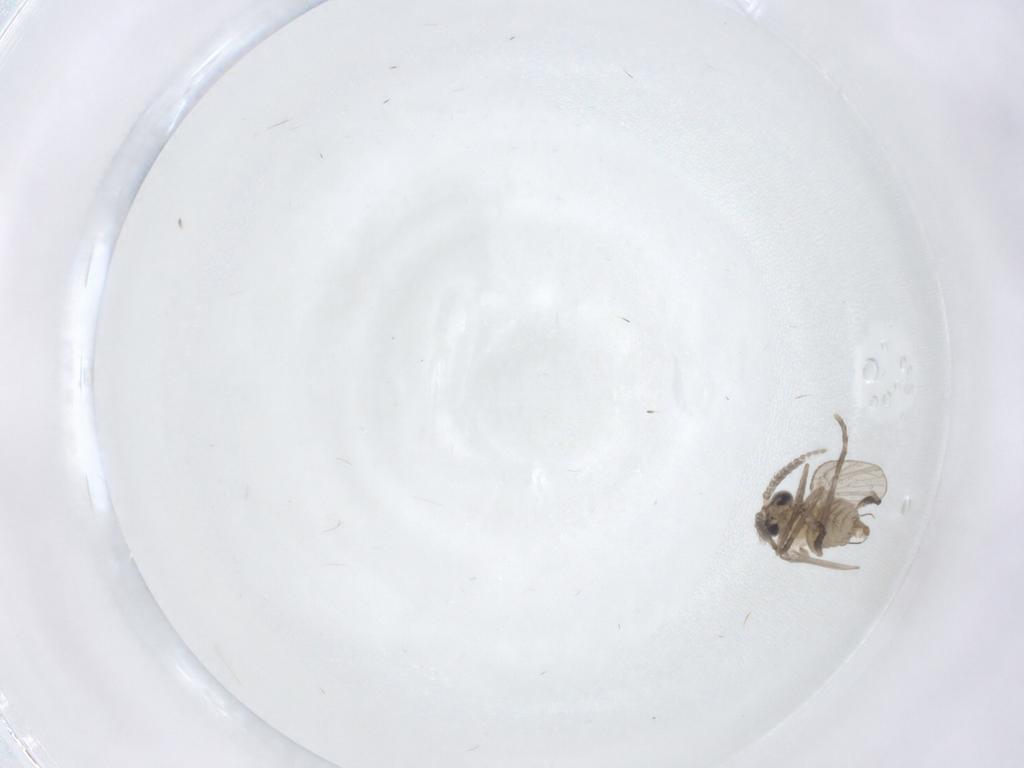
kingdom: Animalia
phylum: Arthropoda
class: Insecta
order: Diptera
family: Psychodidae
